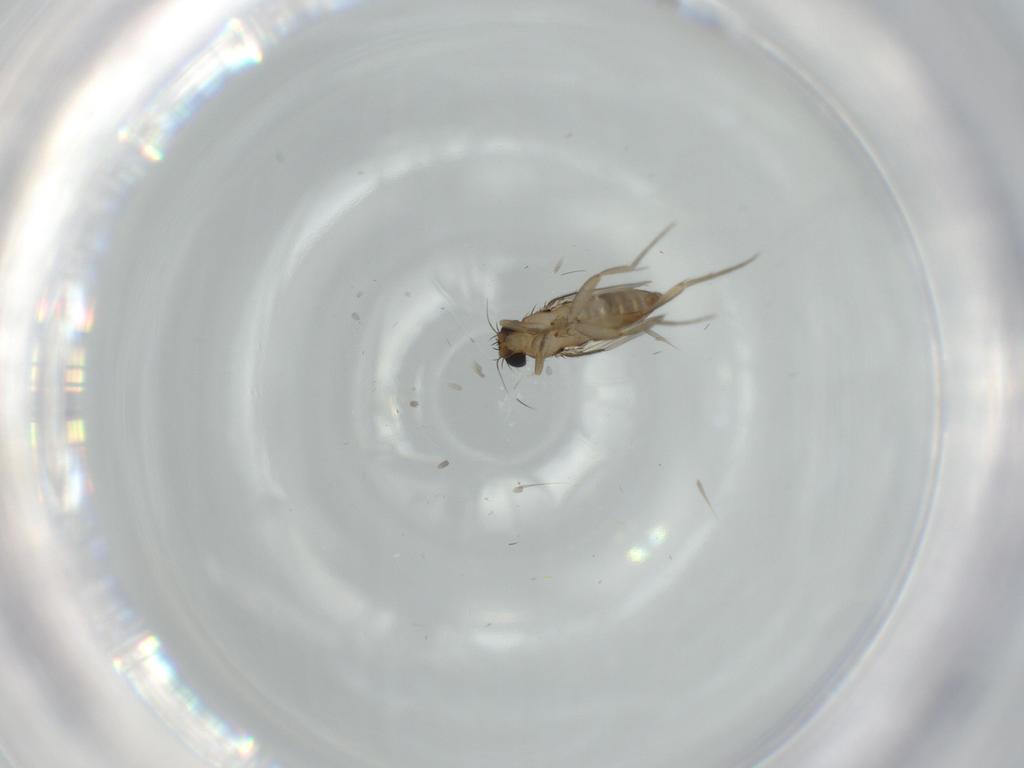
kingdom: Animalia
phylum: Arthropoda
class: Insecta
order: Diptera
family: Phoridae
